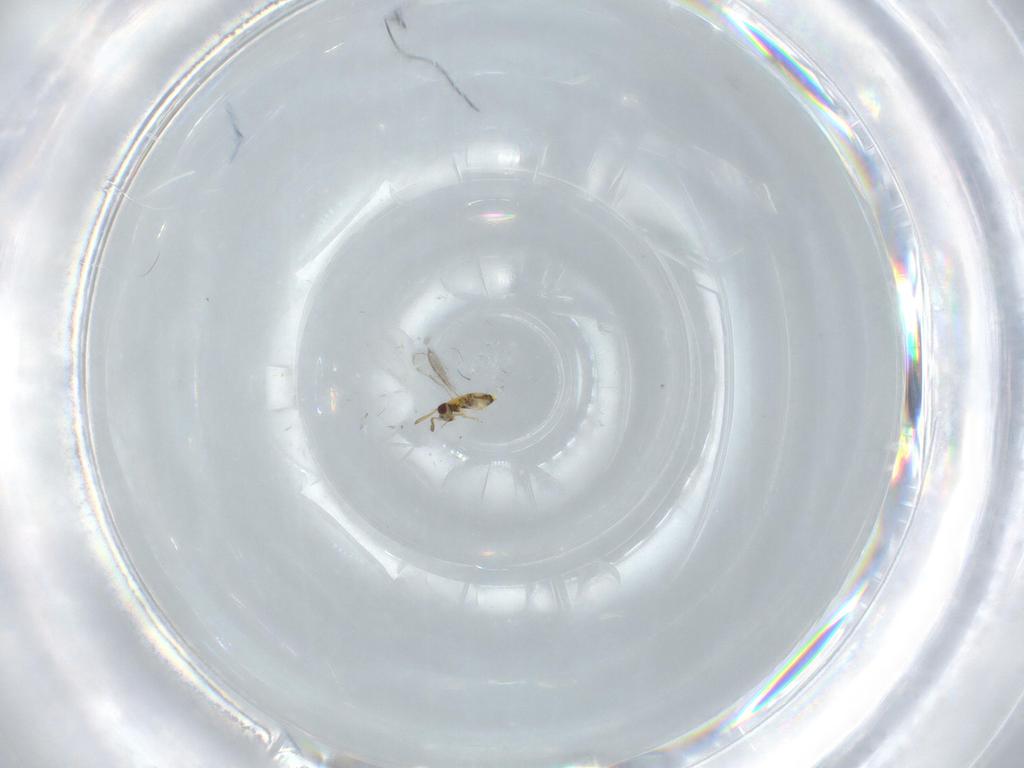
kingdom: Animalia
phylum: Arthropoda
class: Insecta
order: Hymenoptera
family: Aphelinidae
